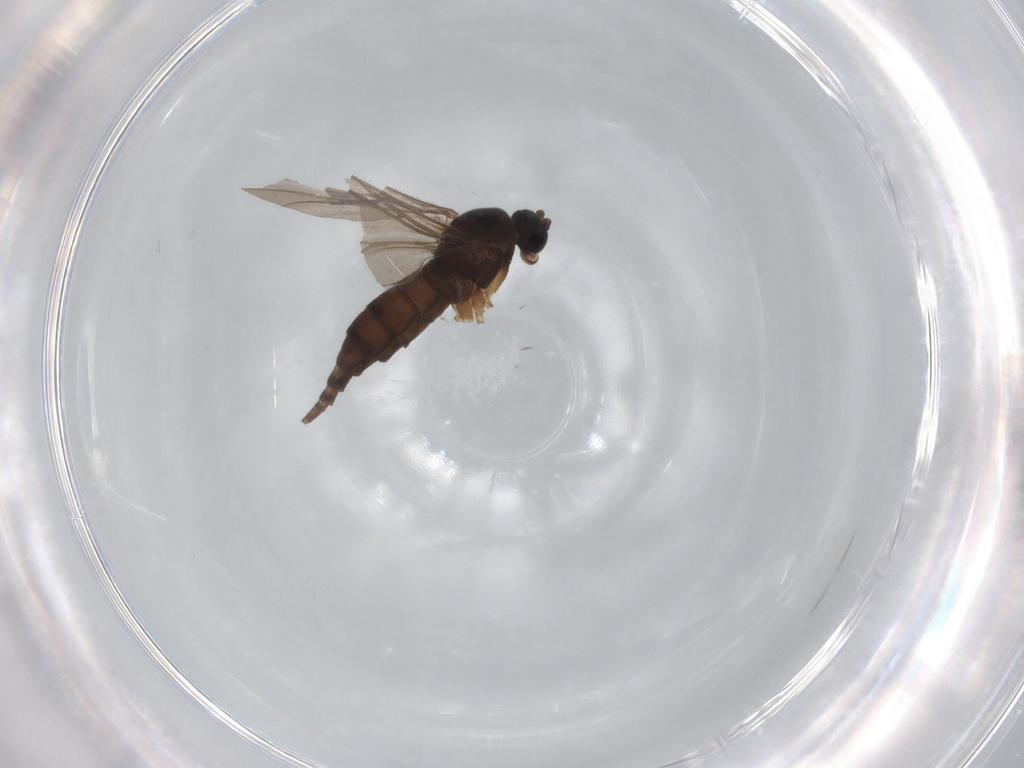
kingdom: Animalia
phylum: Arthropoda
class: Insecta
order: Diptera
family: Sciaridae
